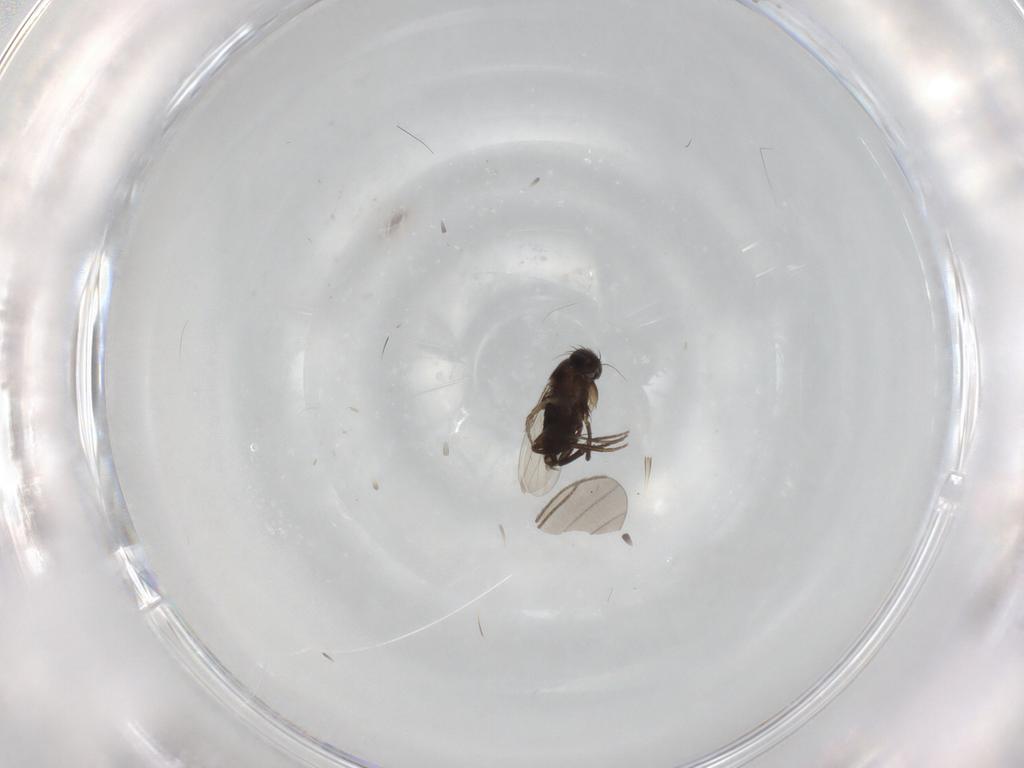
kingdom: Animalia
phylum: Arthropoda
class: Insecta
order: Diptera
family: Phoridae
